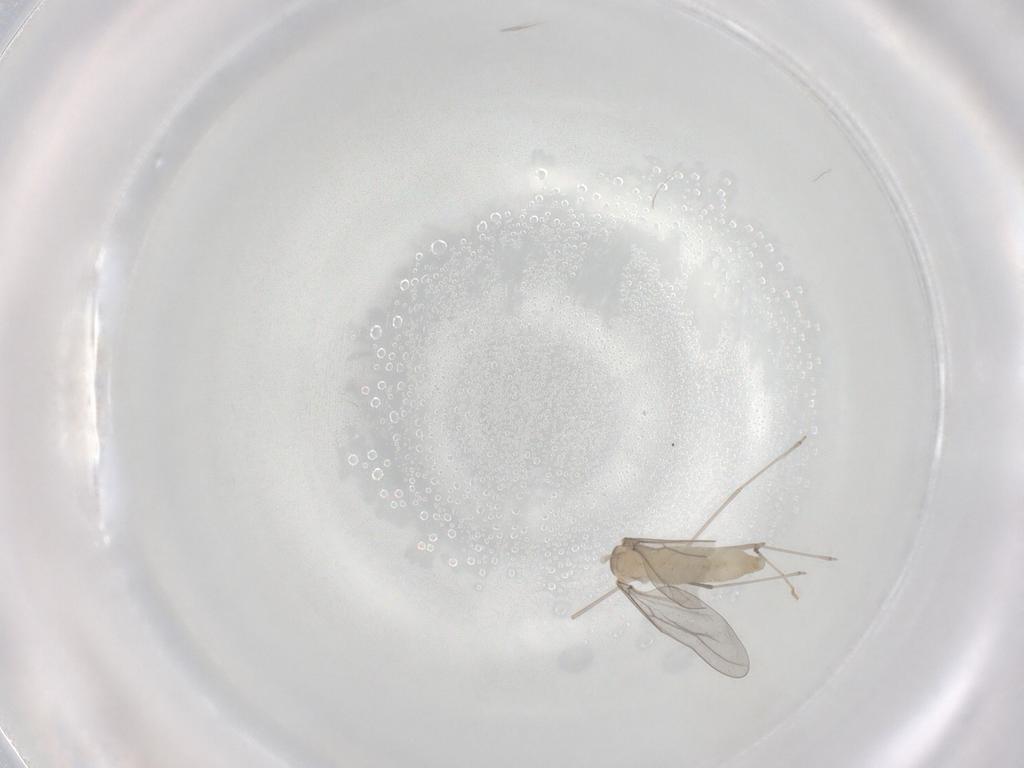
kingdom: Animalia
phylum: Arthropoda
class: Insecta
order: Diptera
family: Cecidomyiidae
